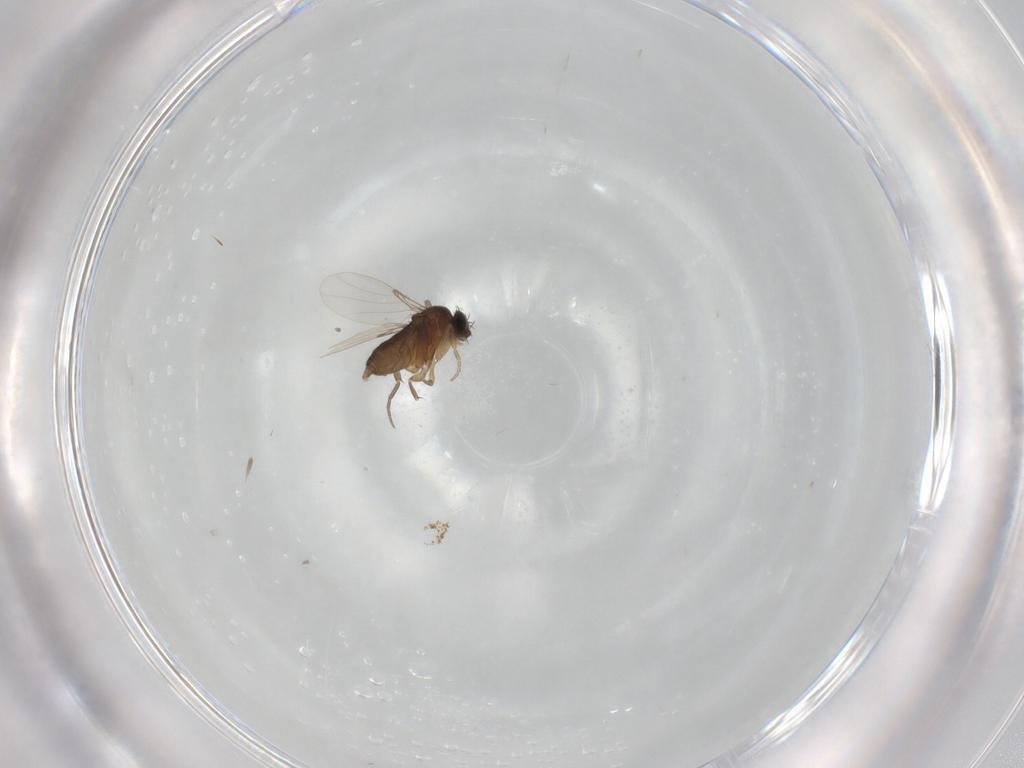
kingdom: Animalia
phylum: Arthropoda
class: Insecta
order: Diptera
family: Phoridae
